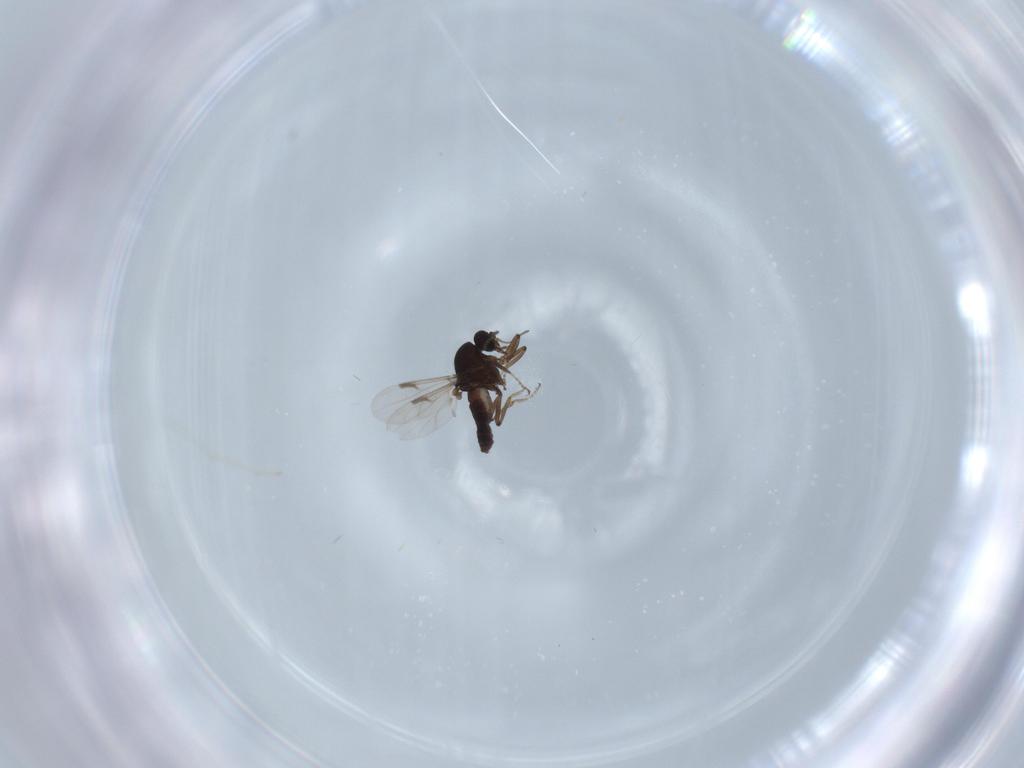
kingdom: Animalia
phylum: Arthropoda
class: Insecta
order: Diptera
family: Ceratopogonidae
